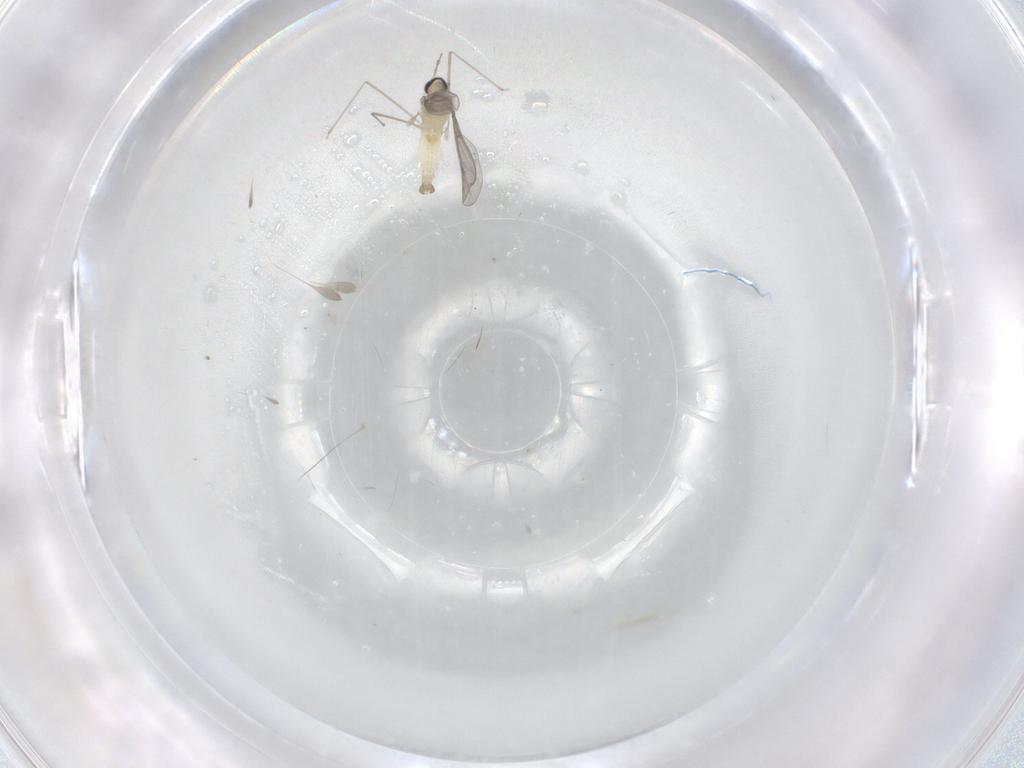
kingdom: Animalia
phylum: Arthropoda
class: Insecta
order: Diptera
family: Cecidomyiidae
